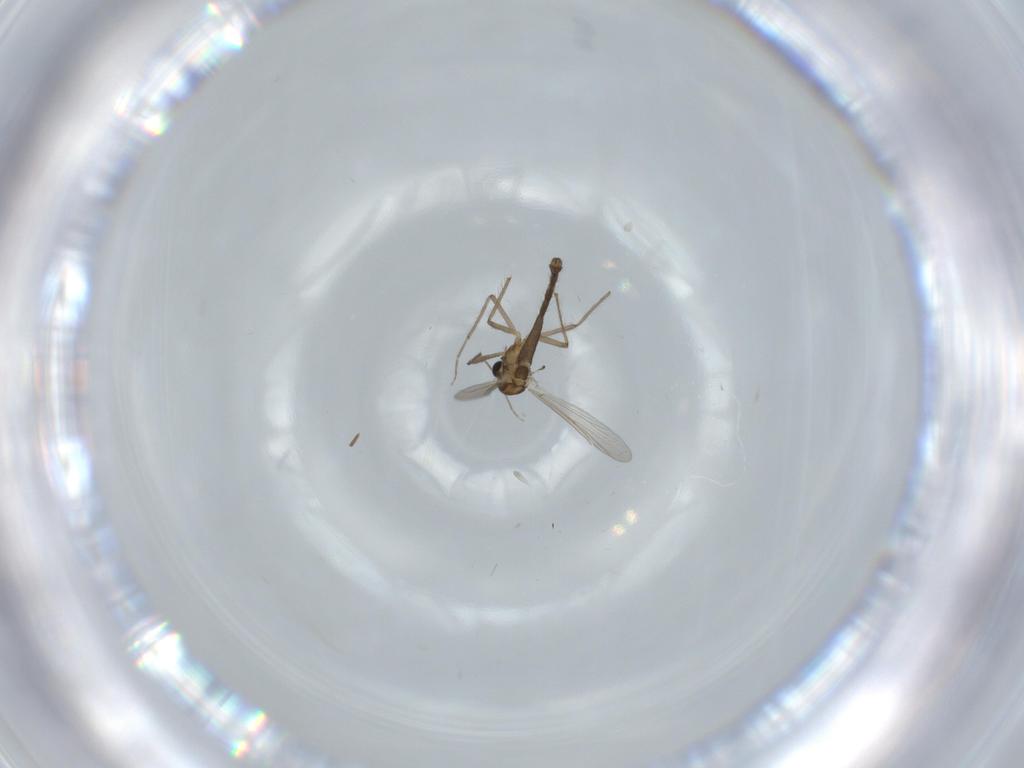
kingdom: Animalia
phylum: Arthropoda
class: Insecta
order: Diptera
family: Chironomidae
